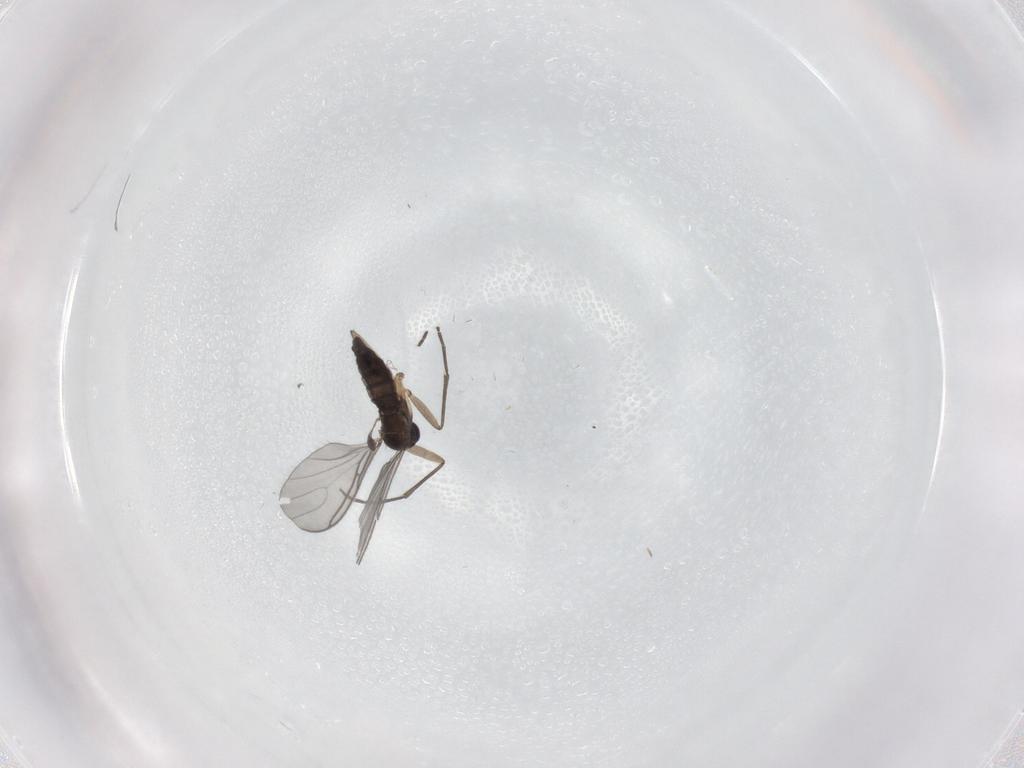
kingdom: Animalia
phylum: Arthropoda
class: Insecta
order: Diptera
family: Sciaridae
